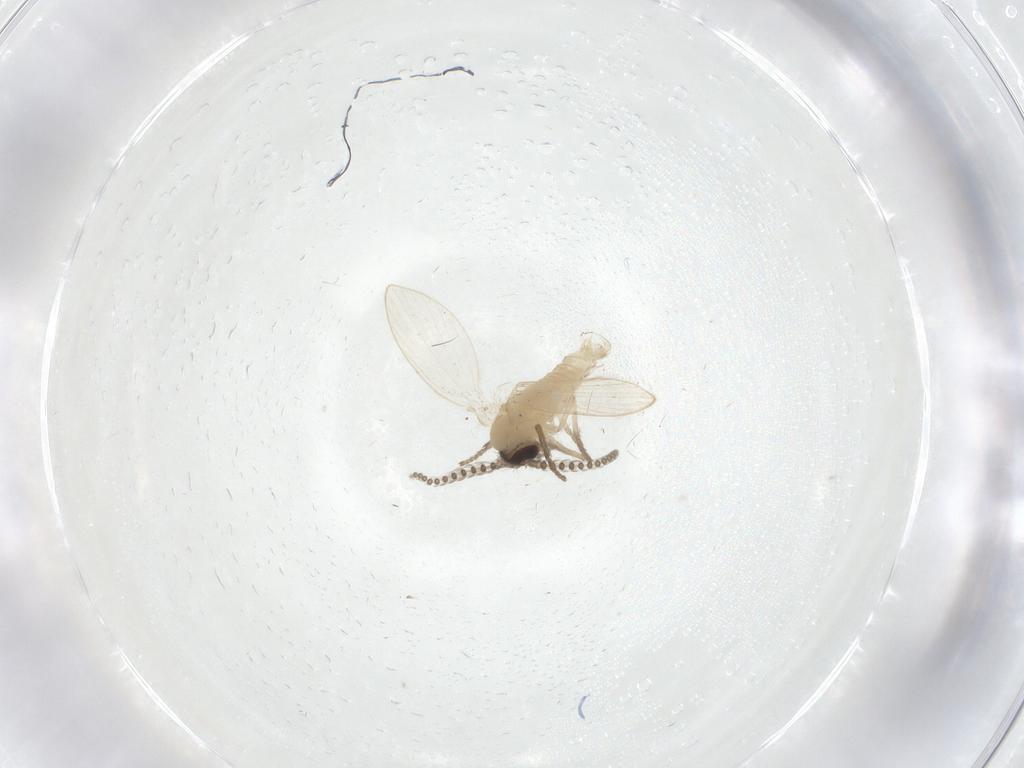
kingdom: Animalia
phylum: Arthropoda
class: Insecta
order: Diptera
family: Psychodidae
